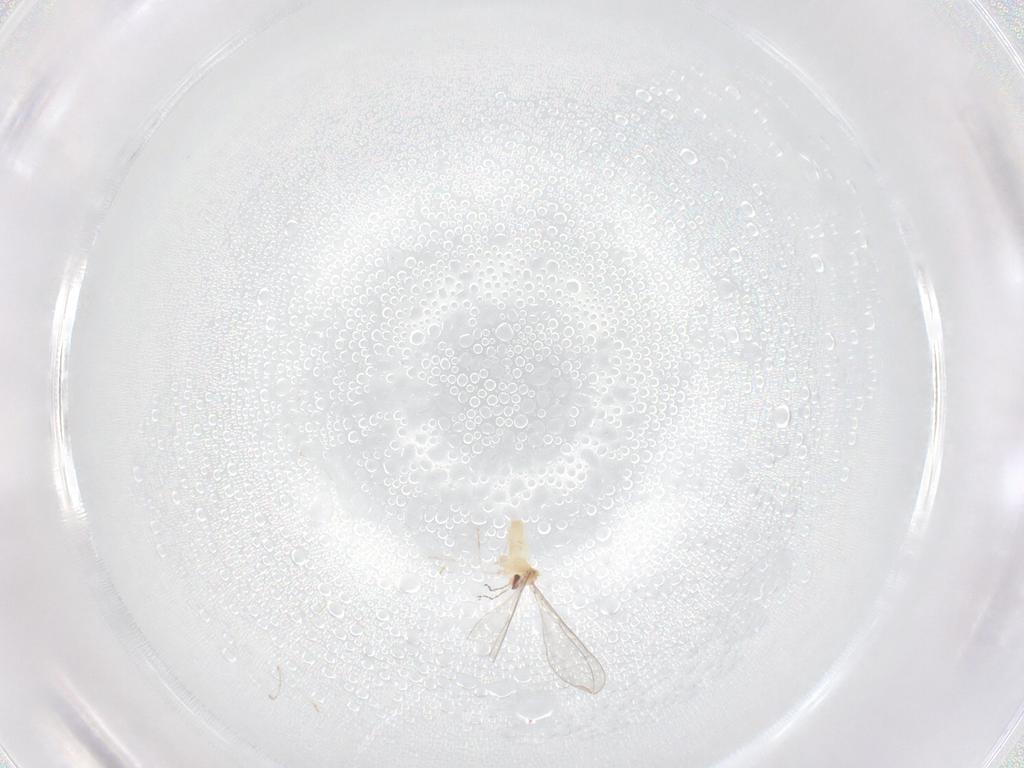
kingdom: Animalia
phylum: Arthropoda
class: Insecta
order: Diptera
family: Cecidomyiidae
